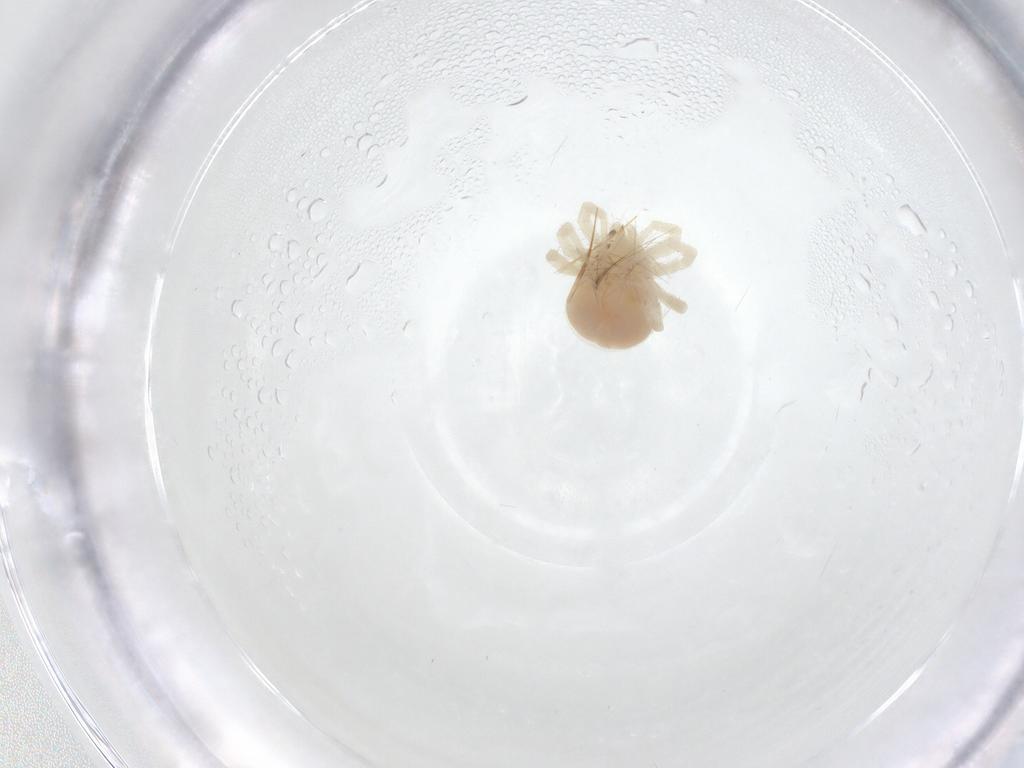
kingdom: Animalia
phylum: Arthropoda
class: Arachnida
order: Trombidiformes
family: Anystidae
